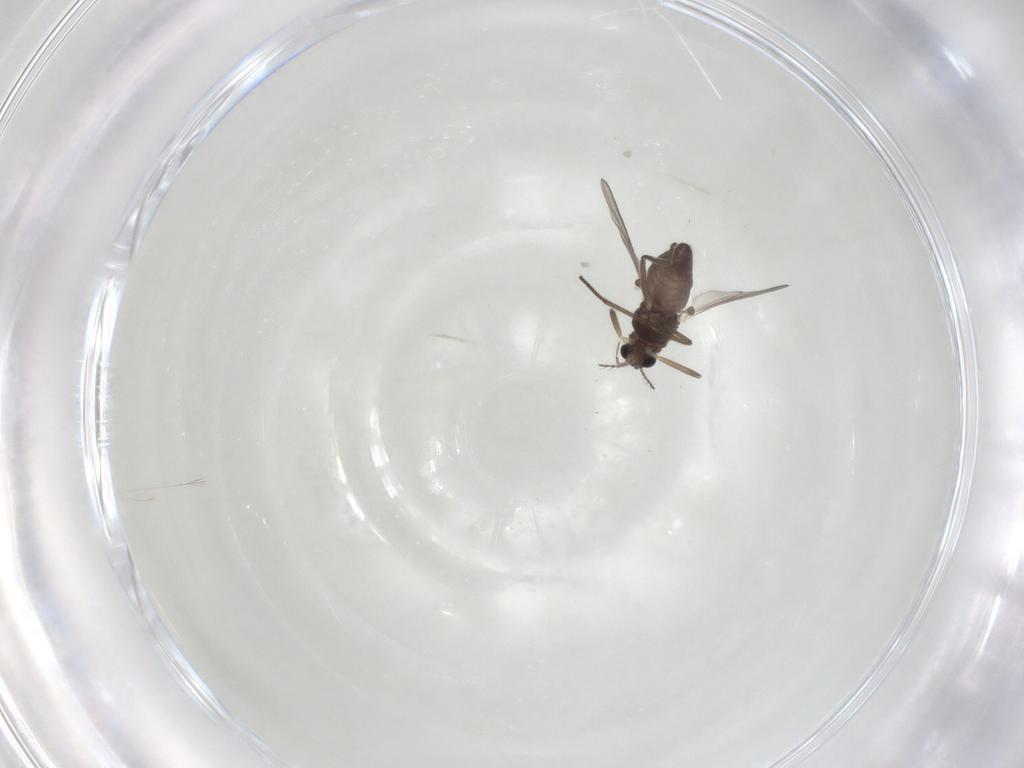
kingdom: Animalia
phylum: Arthropoda
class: Insecta
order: Diptera
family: Chironomidae
